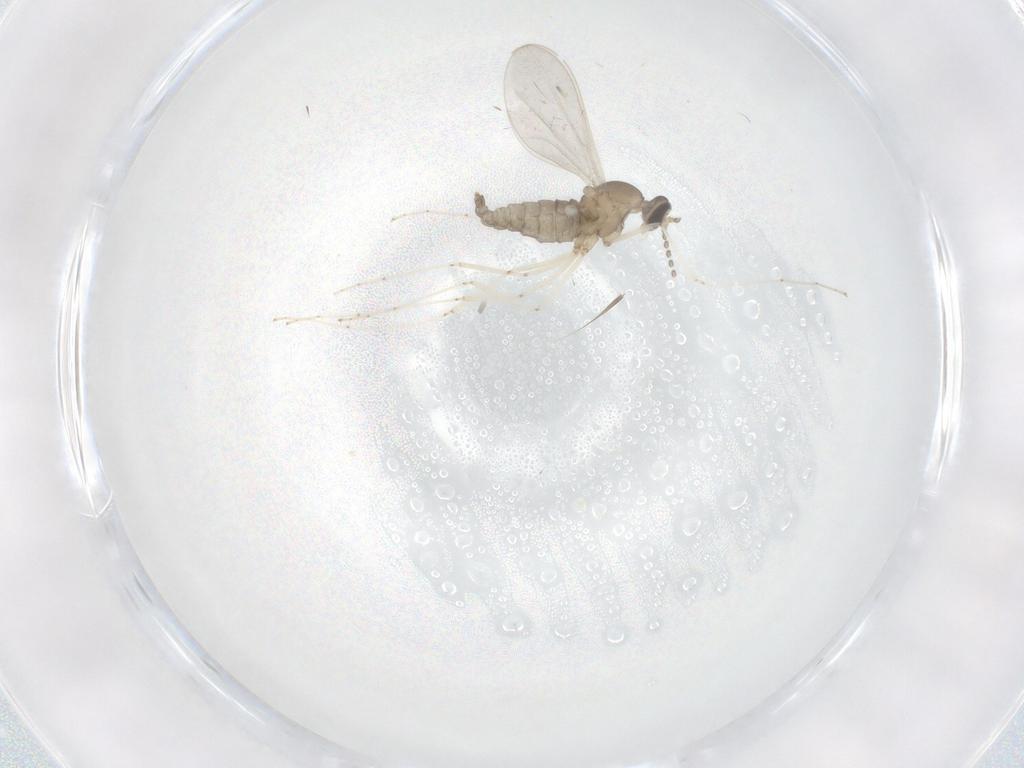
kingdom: Animalia
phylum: Arthropoda
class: Insecta
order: Diptera
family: Cecidomyiidae
